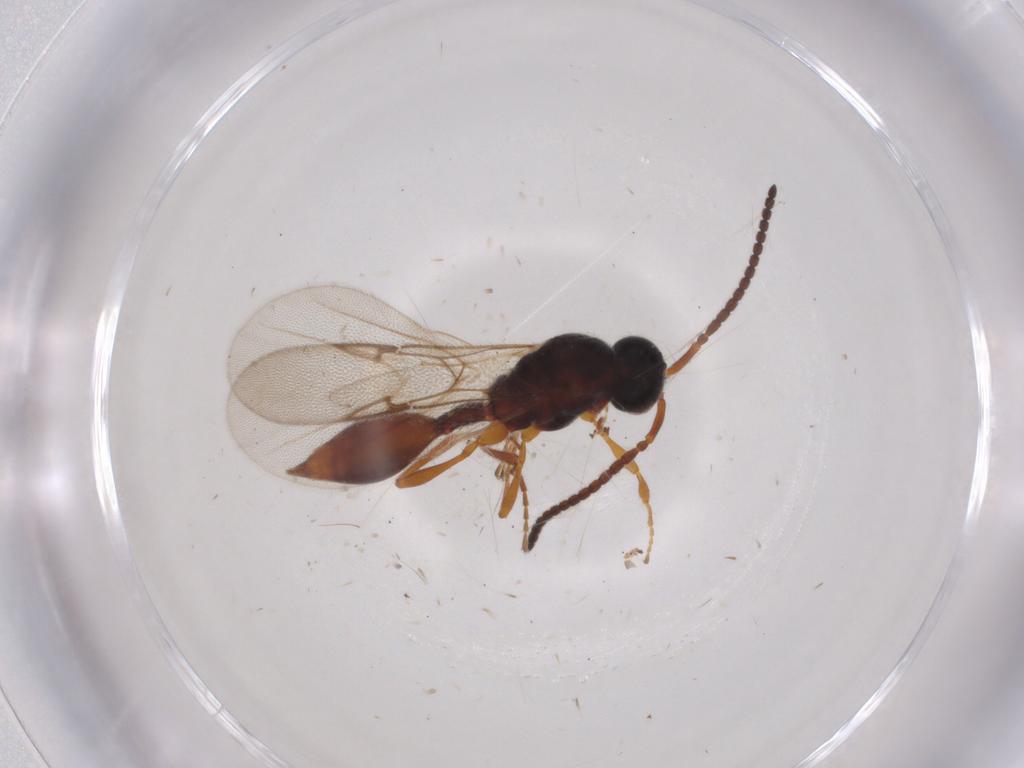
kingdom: Animalia
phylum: Arthropoda
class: Insecta
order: Hymenoptera
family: Diapriidae
